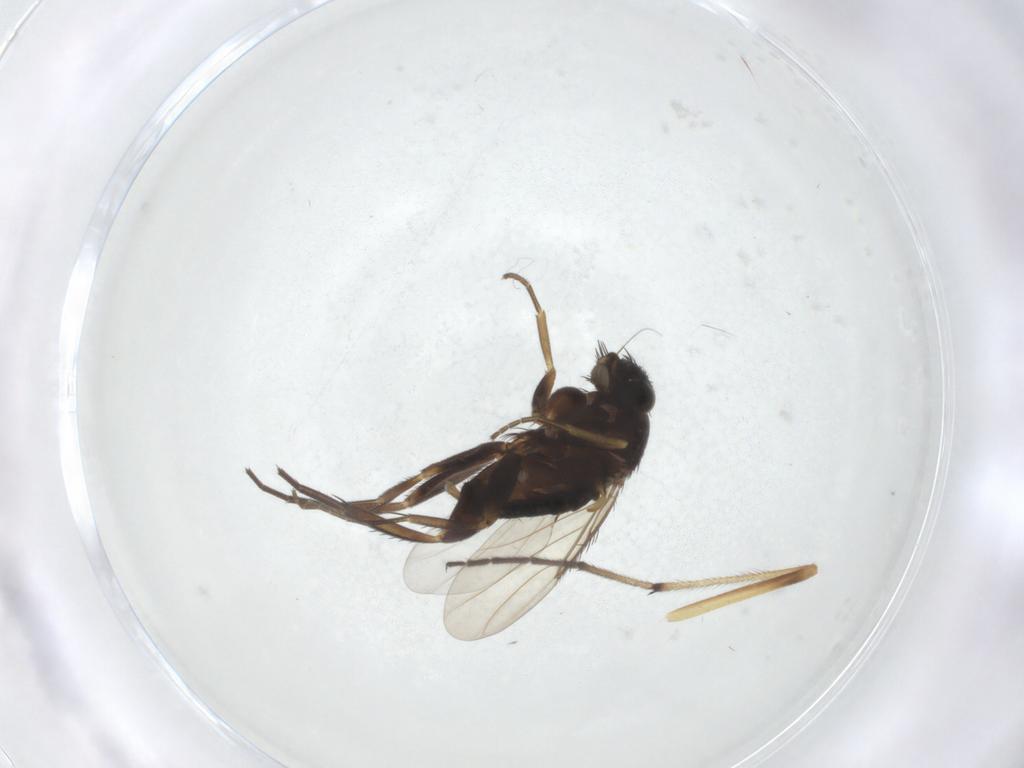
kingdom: Animalia
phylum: Arthropoda
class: Insecta
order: Diptera
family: Phoridae
